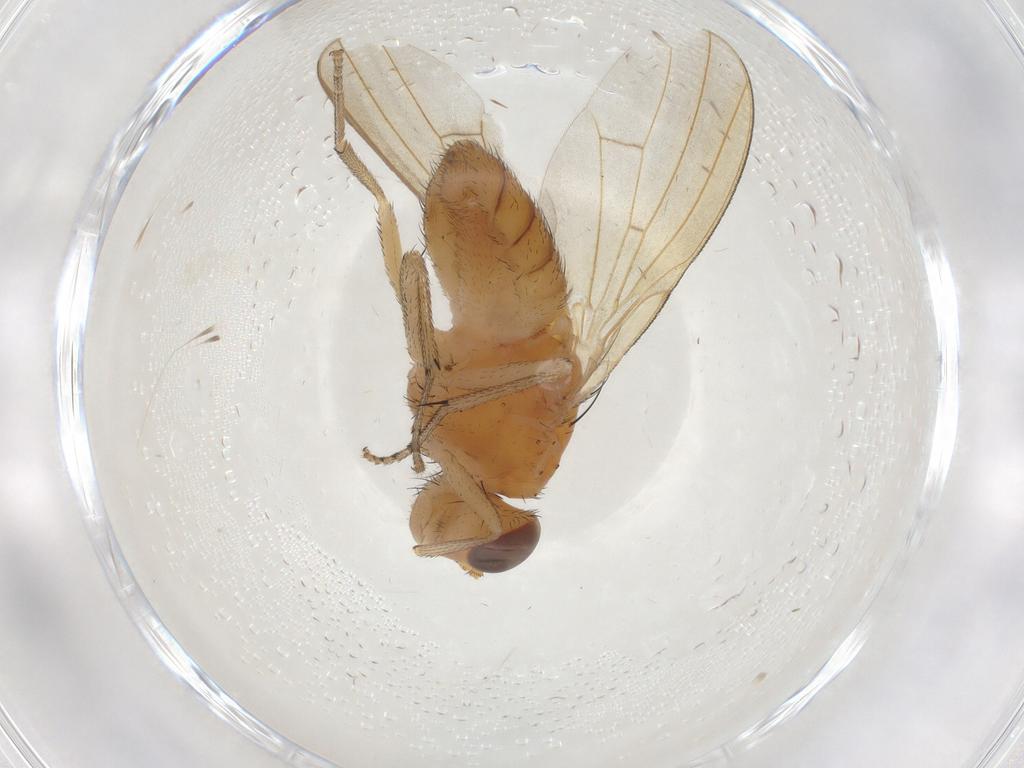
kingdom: Animalia
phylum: Arthropoda
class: Insecta
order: Diptera
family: Lauxaniidae
